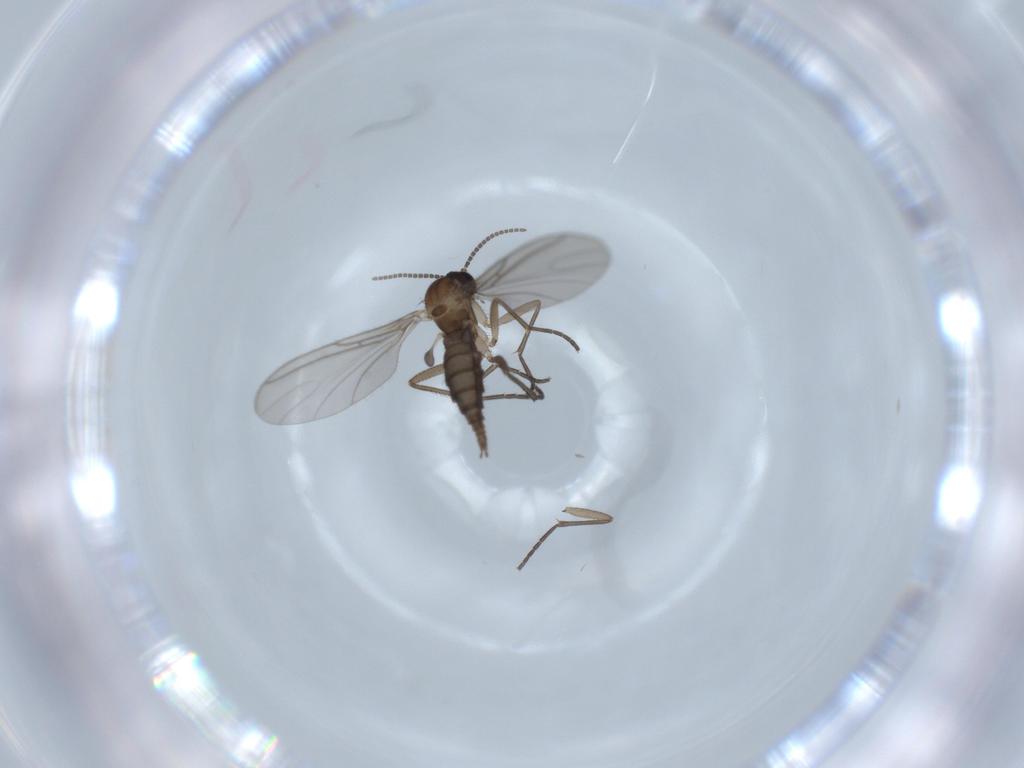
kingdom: Animalia
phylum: Arthropoda
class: Insecta
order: Diptera
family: Sciaridae
